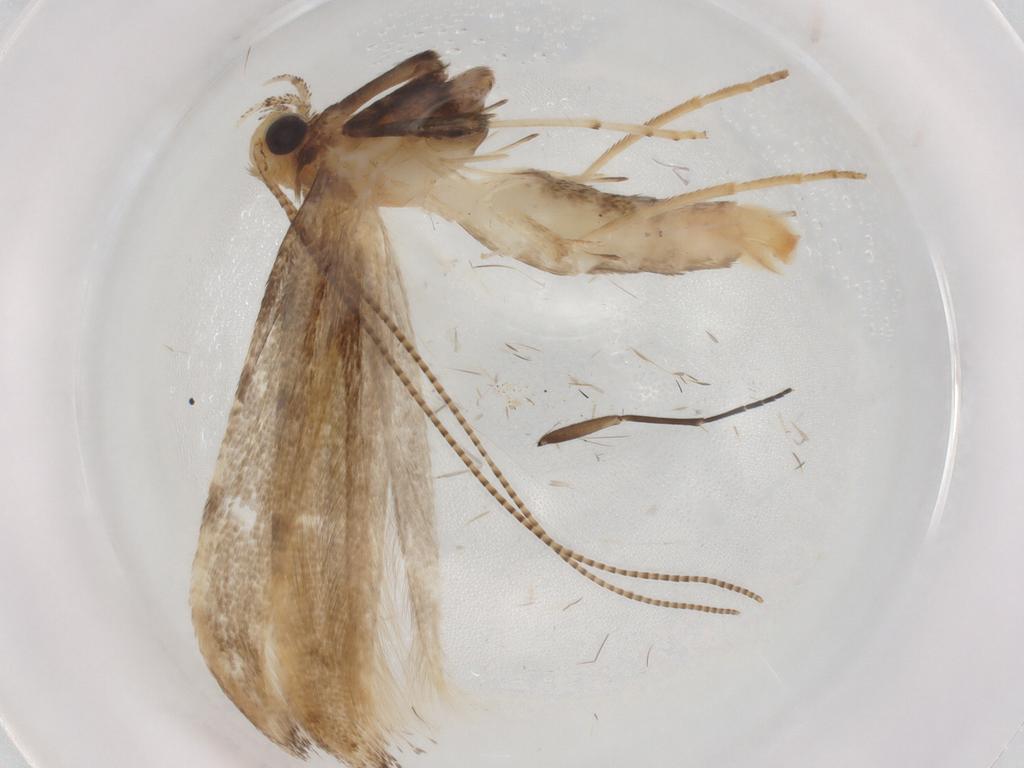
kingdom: Animalia
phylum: Arthropoda
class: Insecta
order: Lepidoptera
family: Gracillariidae
